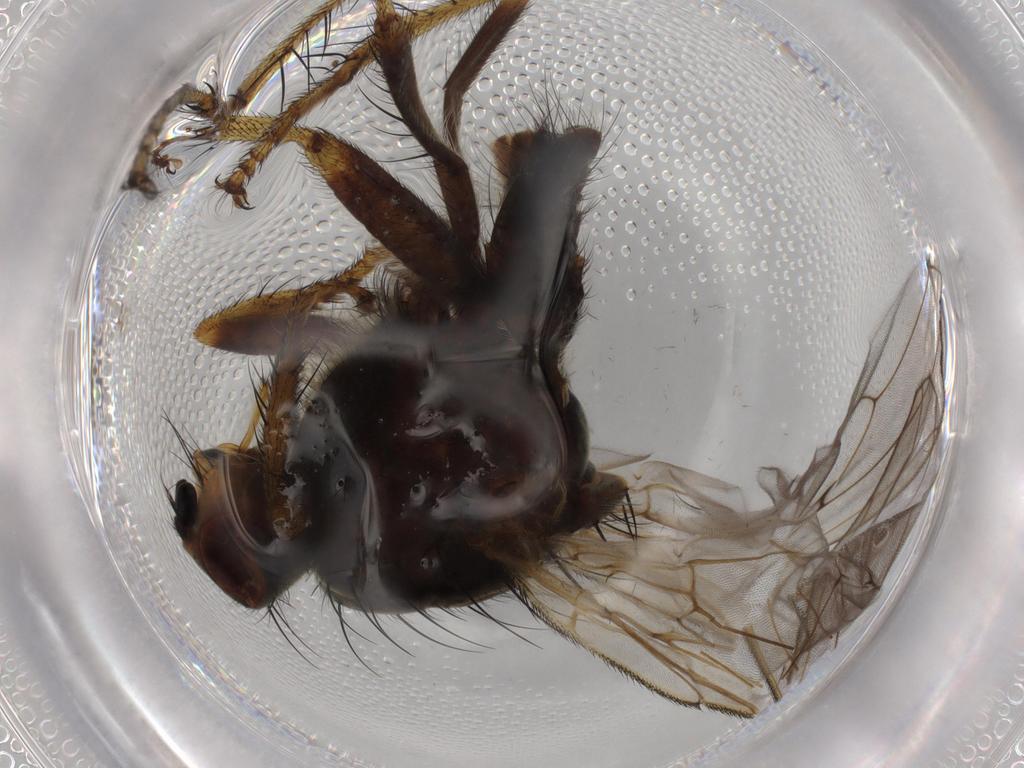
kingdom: Animalia
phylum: Arthropoda
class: Insecta
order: Diptera
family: Scathophagidae
